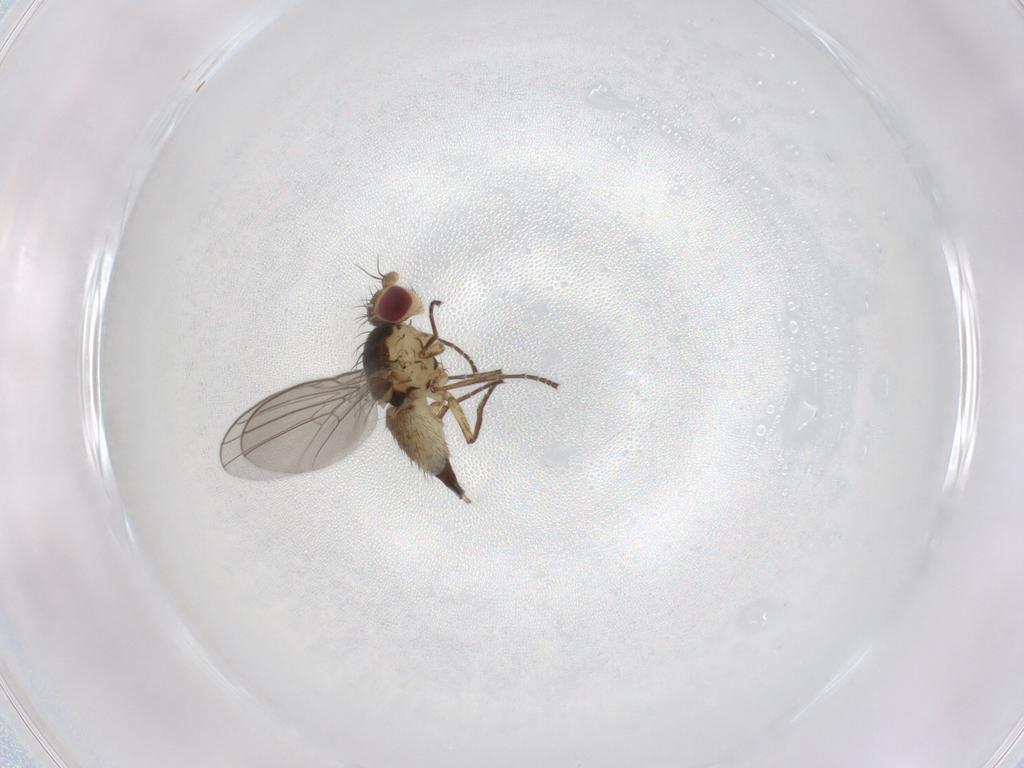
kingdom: Animalia
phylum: Arthropoda
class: Insecta
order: Diptera
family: Agromyzidae
